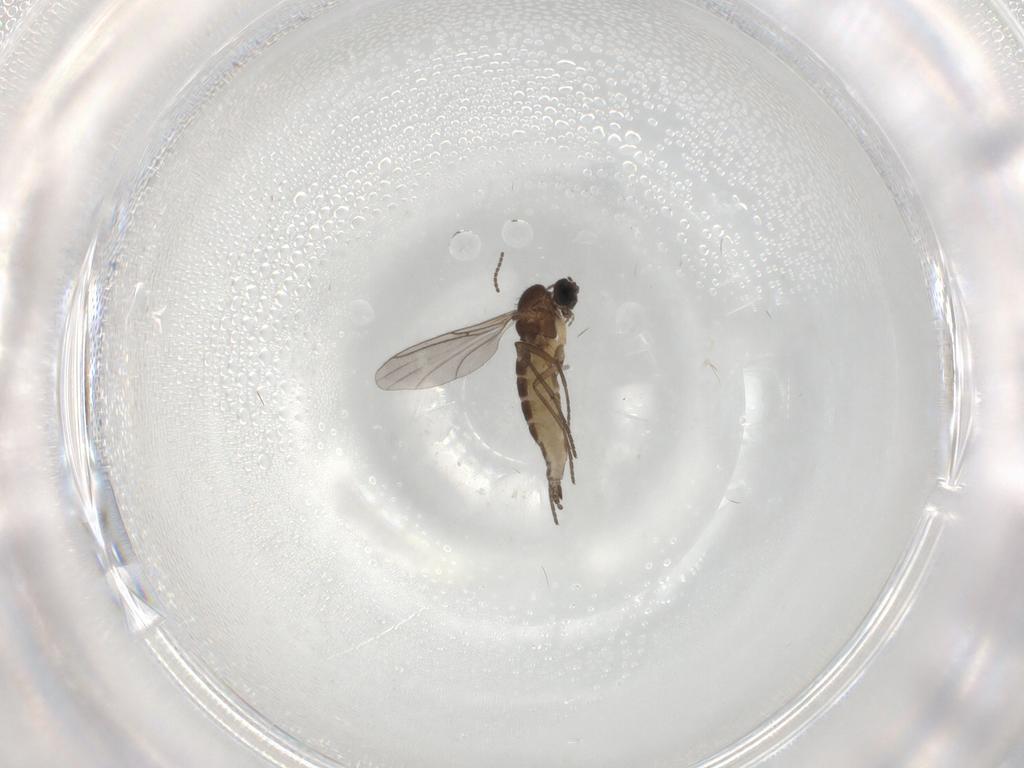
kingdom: Animalia
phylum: Arthropoda
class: Insecta
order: Diptera
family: Sciaridae
